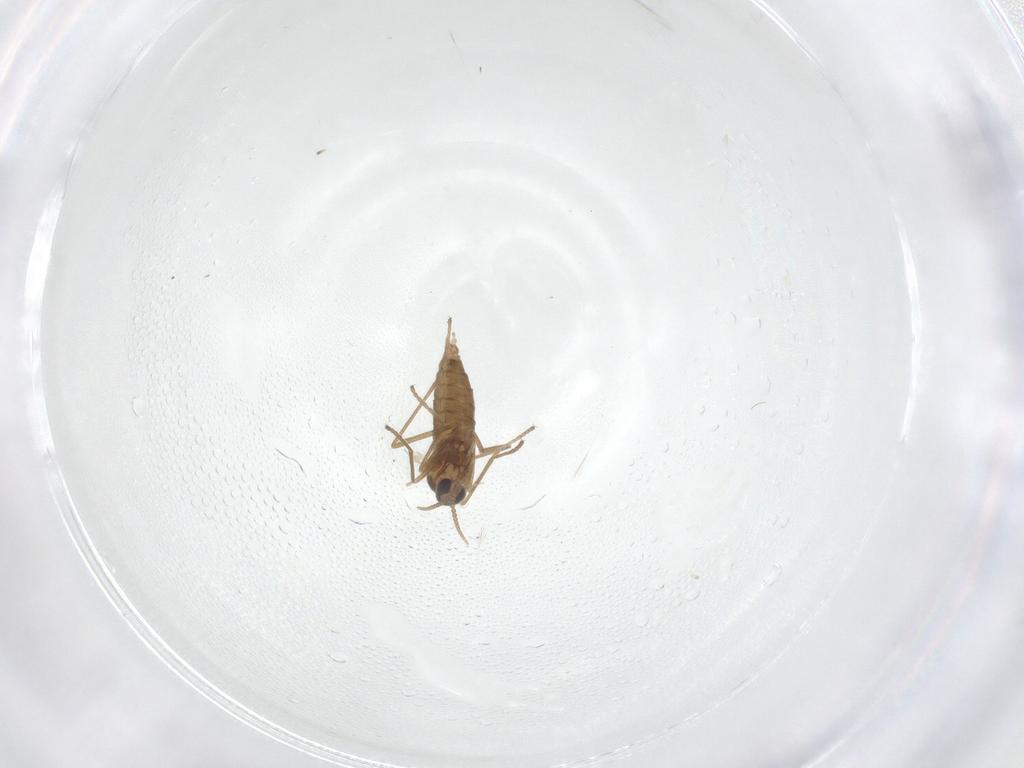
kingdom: Animalia
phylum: Arthropoda
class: Insecta
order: Diptera
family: Cecidomyiidae
